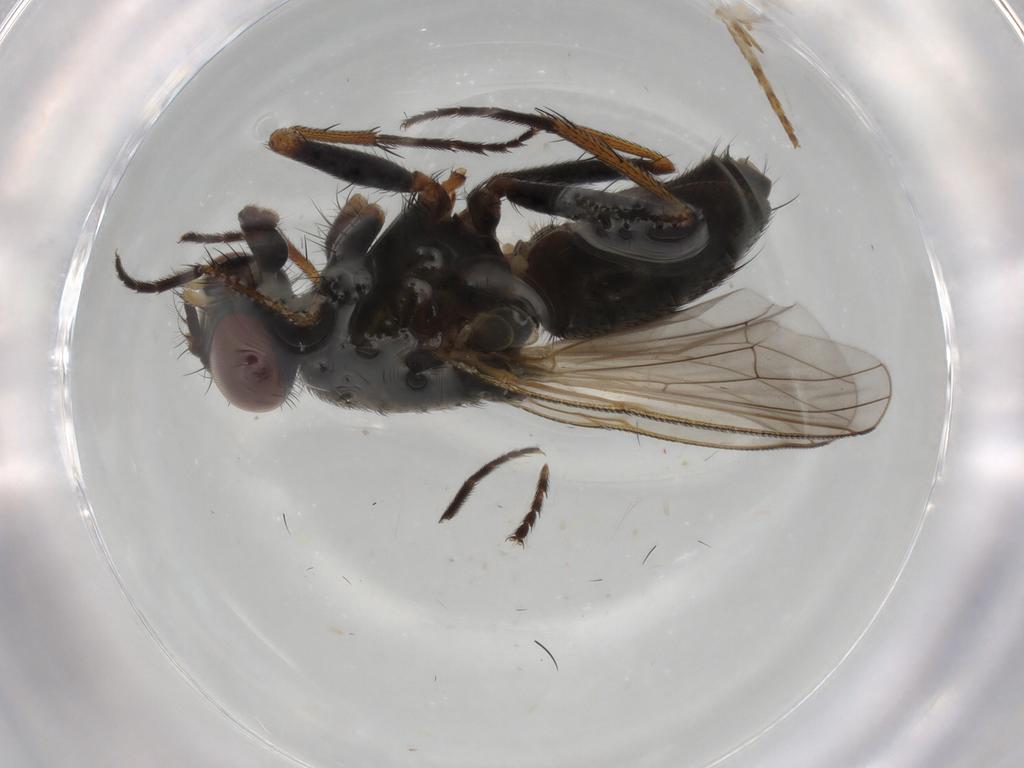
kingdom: Animalia
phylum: Arthropoda
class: Insecta
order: Diptera
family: Muscidae
